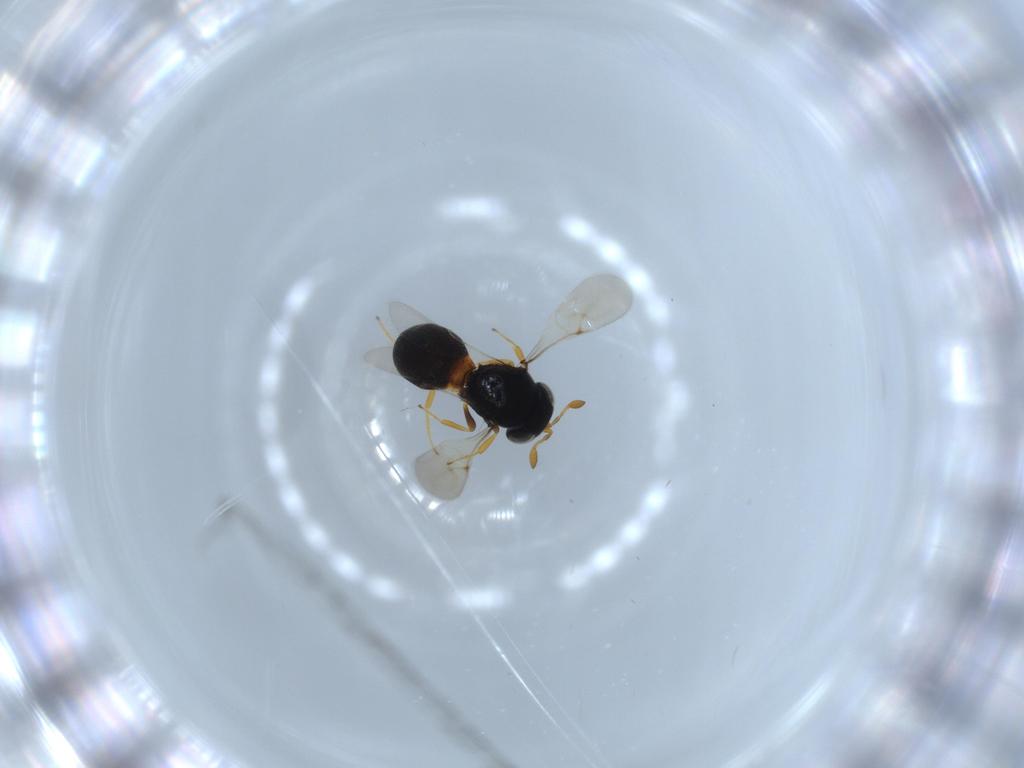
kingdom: Animalia
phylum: Arthropoda
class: Insecta
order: Hymenoptera
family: Scelionidae
